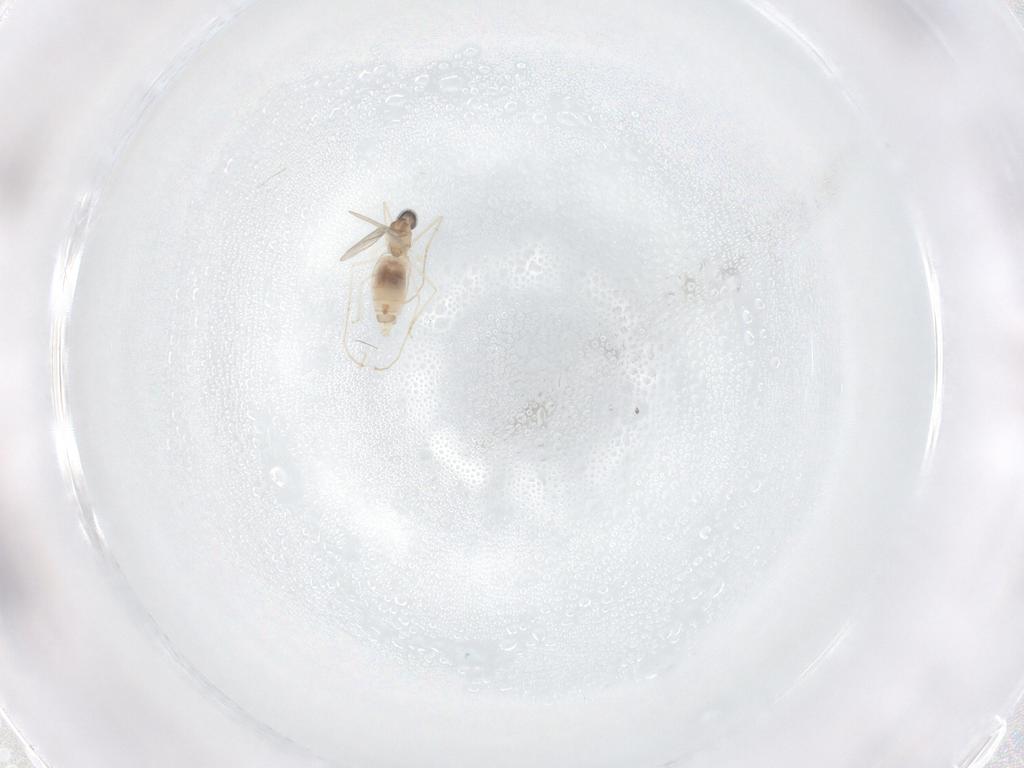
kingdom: Animalia
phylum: Arthropoda
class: Insecta
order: Diptera
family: Cecidomyiidae
